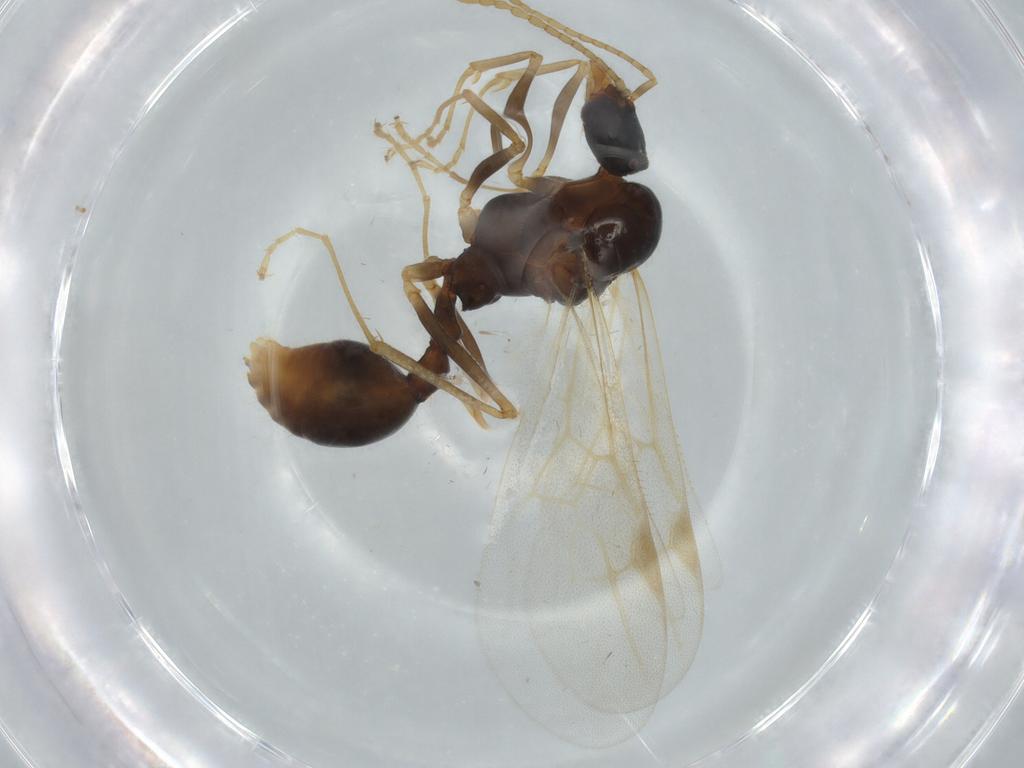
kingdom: Animalia
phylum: Arthropoda
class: Insecta
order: Hymenoptera
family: Formicidae
